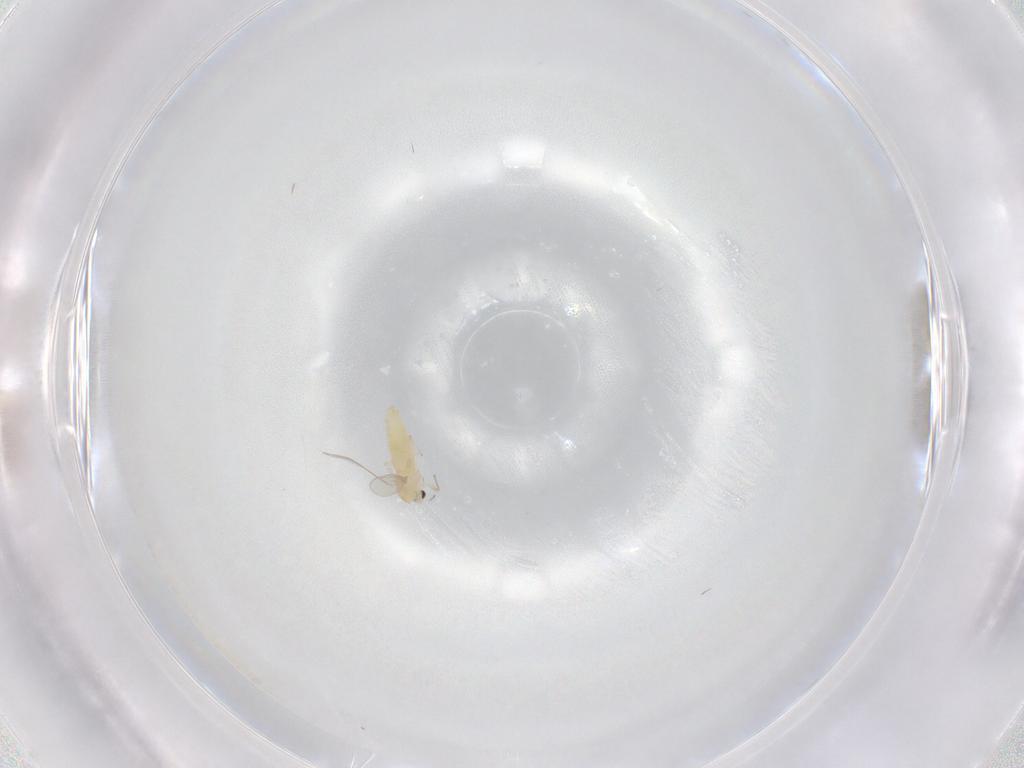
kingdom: Animalia
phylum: Arthropoda
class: Insecta
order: Diptera
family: Chironomidae
